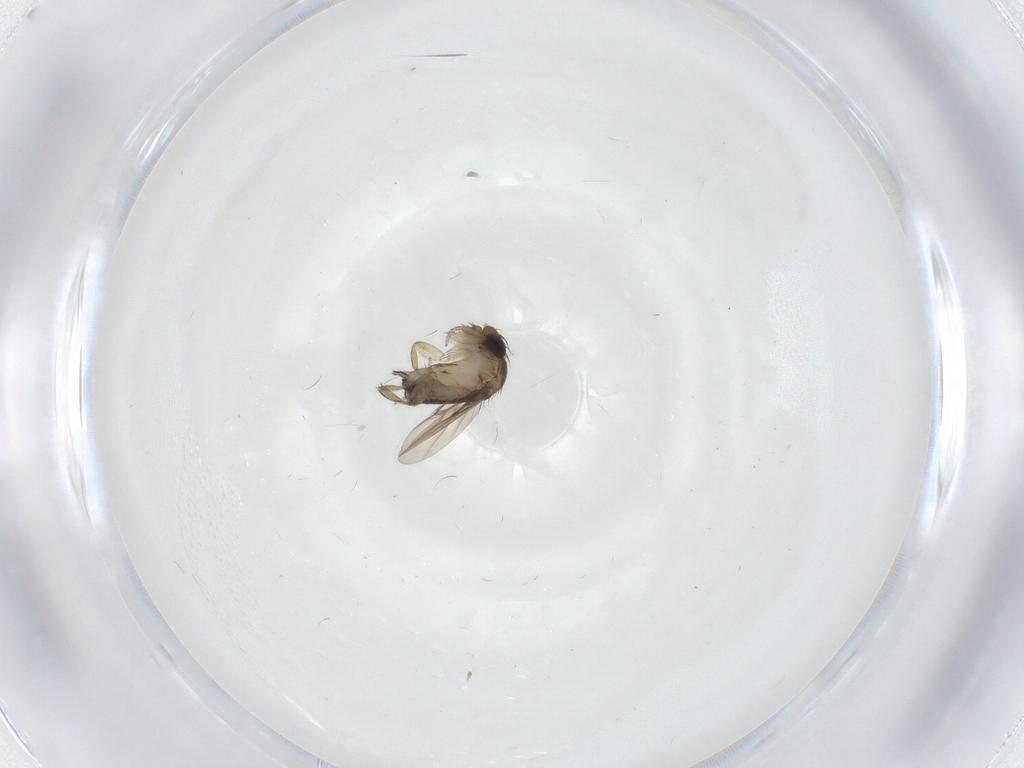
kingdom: Animalia
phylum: Arthropoda
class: Insecta
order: Diptera
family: Phoridae
